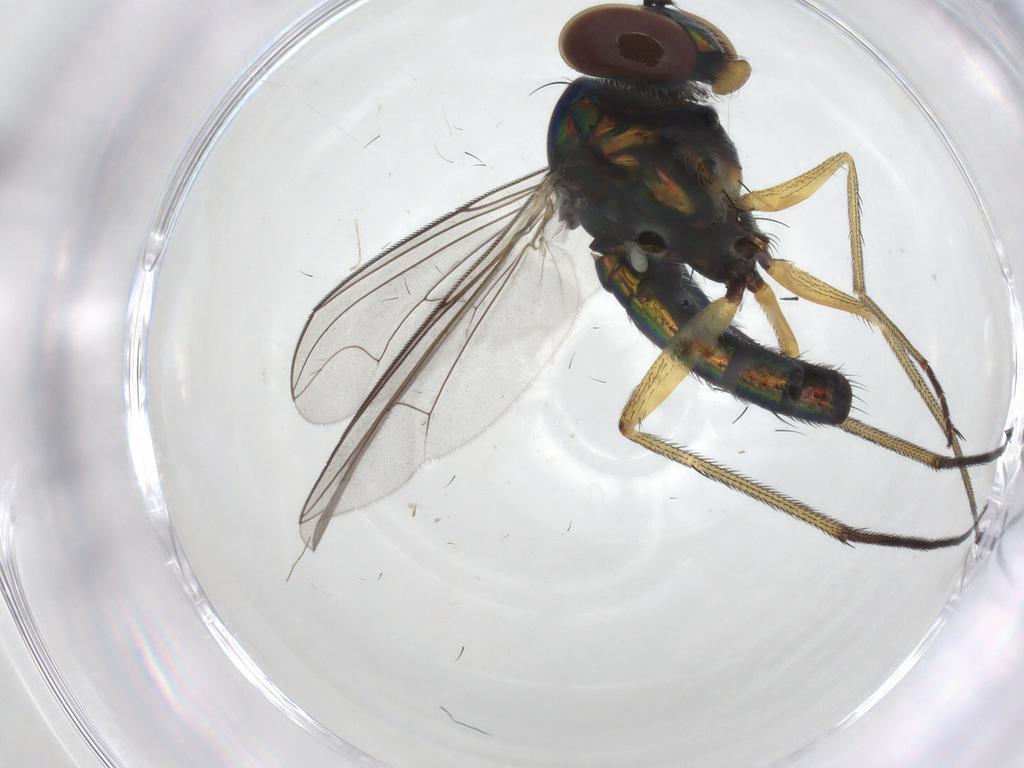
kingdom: Animalia
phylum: Arthropoda
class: Insecta
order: Diptera
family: Dolichopodidae
